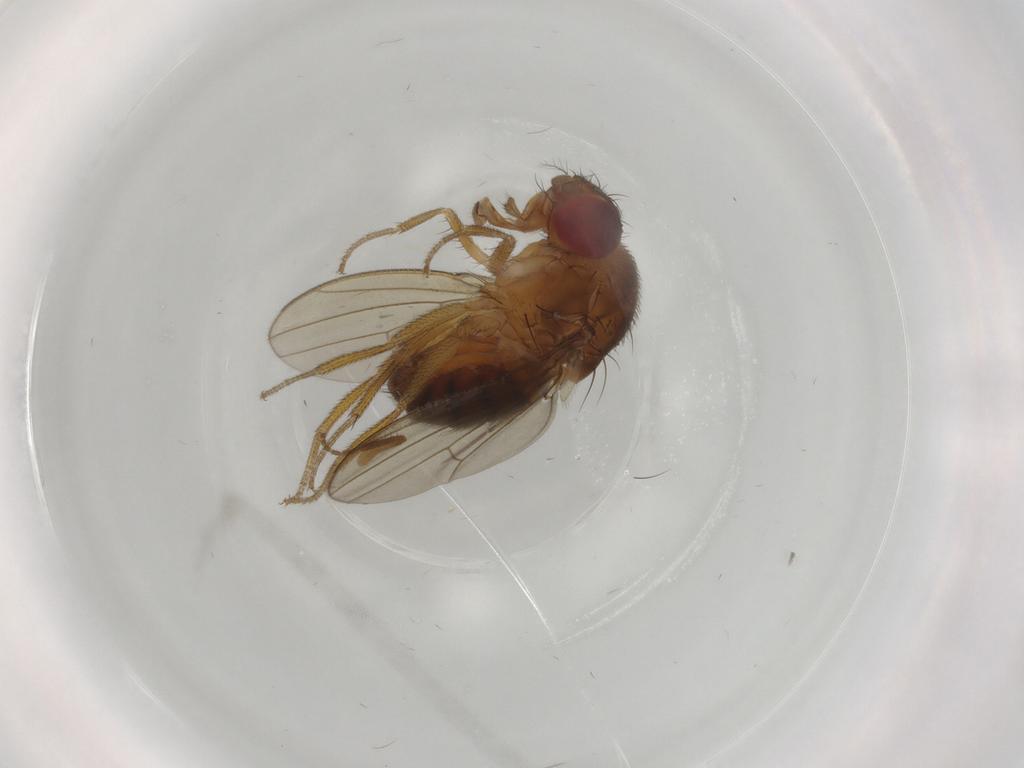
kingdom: Animalia
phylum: Arthropoda
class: Insecta
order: Diptera
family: Drosophilidae
